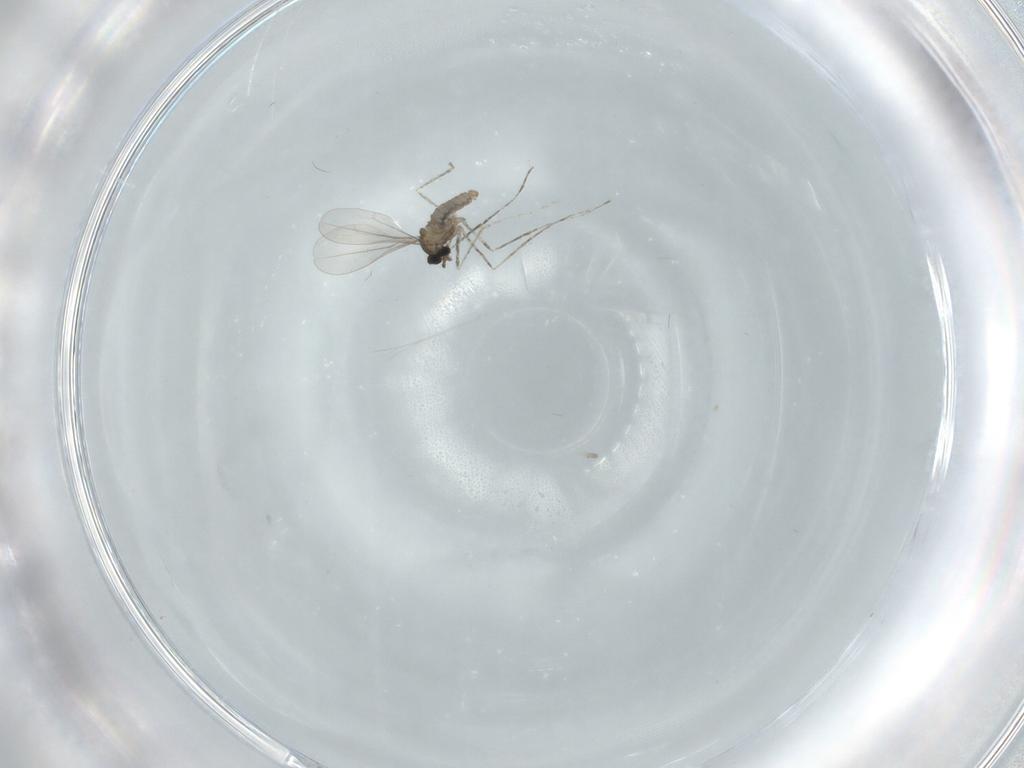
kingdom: Animalia
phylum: Arthropoda
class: Insecta
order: Diptera
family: Cecidomyiidae
